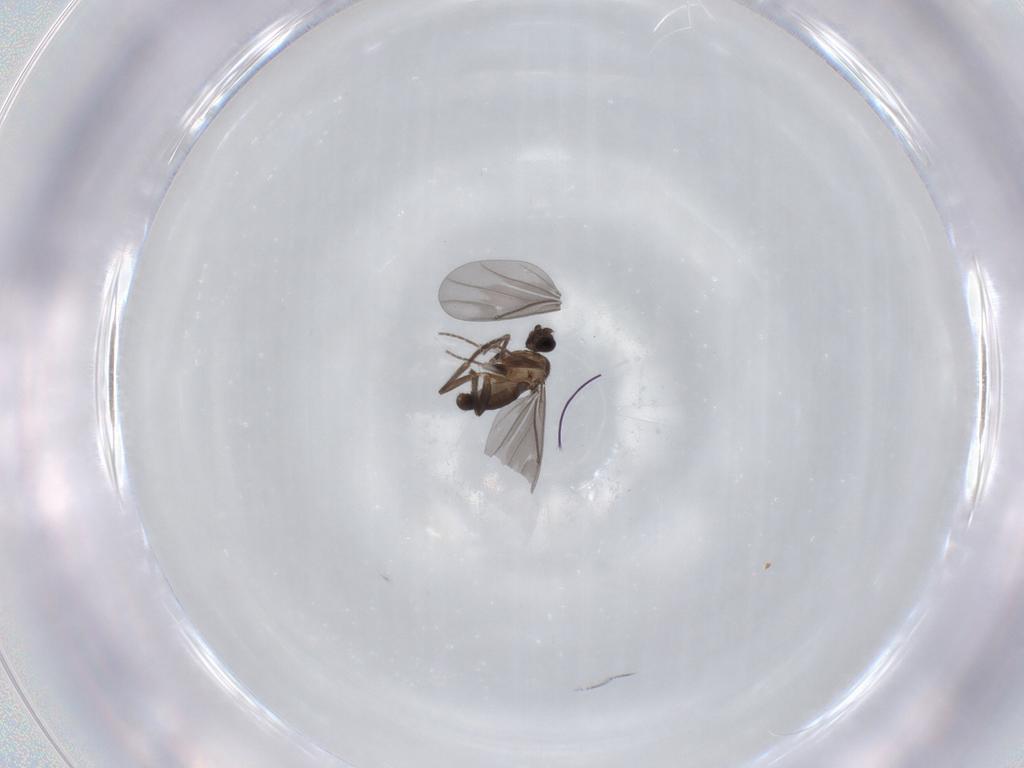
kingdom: Animalia
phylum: Arthropoda
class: Insecta
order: Diptera
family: Phoridae
